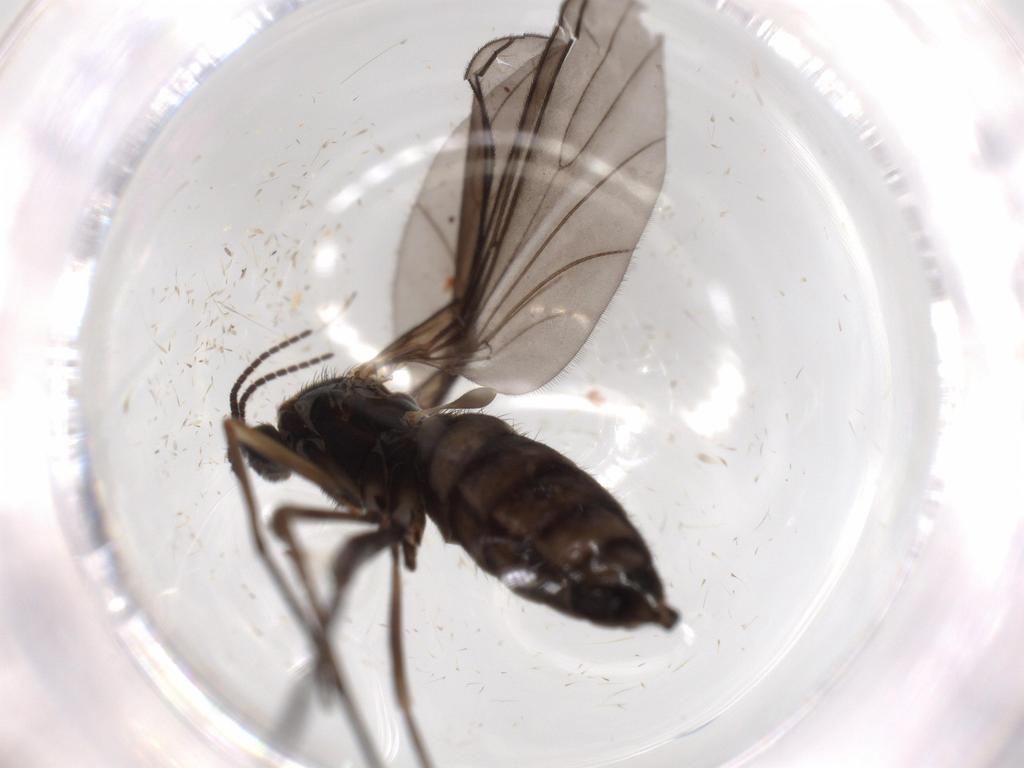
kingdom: Animalia
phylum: Arthropoda
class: Insecta
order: Diptera
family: Sciaridae
